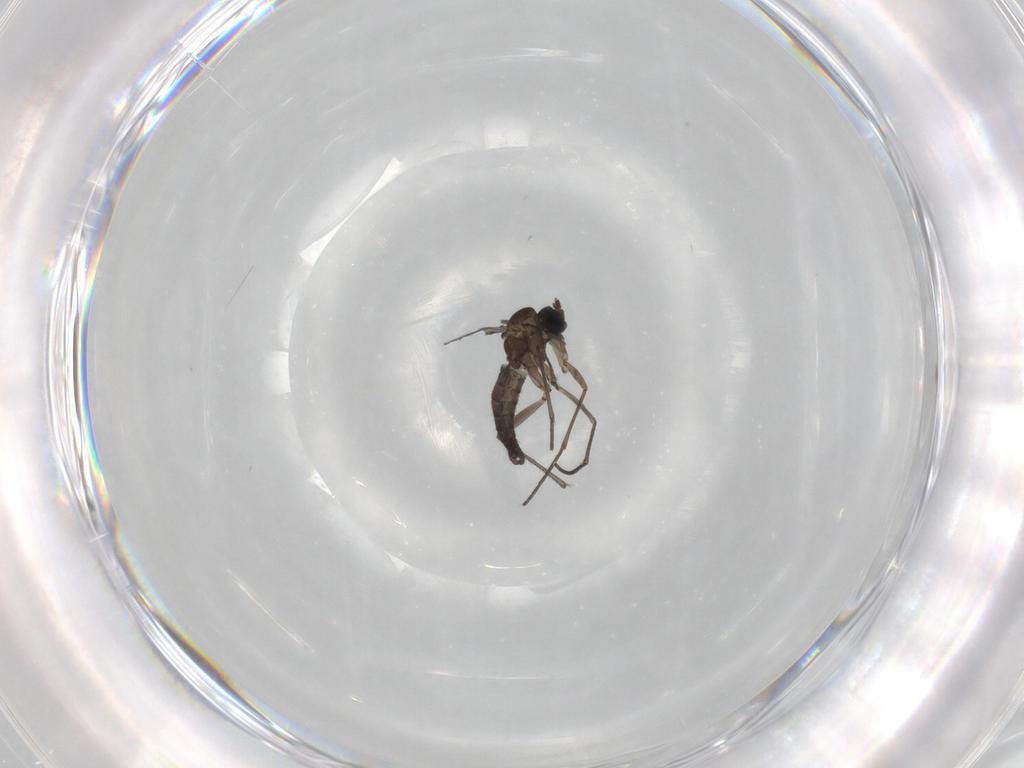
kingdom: Animalia
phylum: Arthropoda
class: Insecta
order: Diptera
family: Sciaridae
